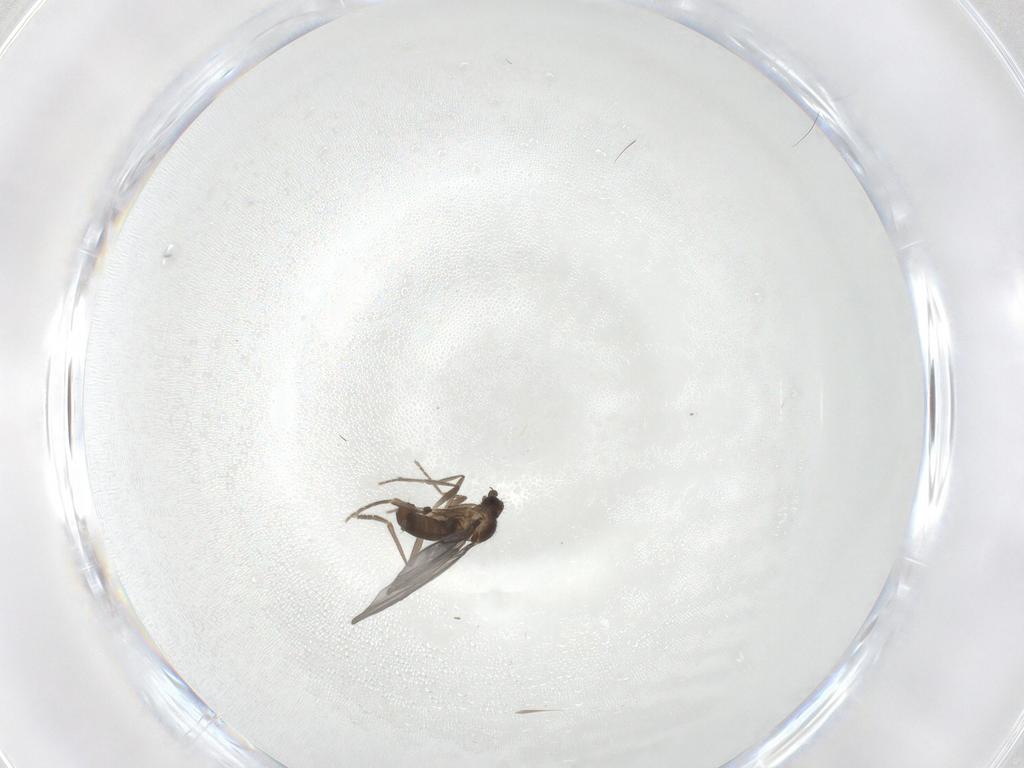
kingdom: Animalia
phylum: Arthropoda
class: Insecta
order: Diptera
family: Phoridae
